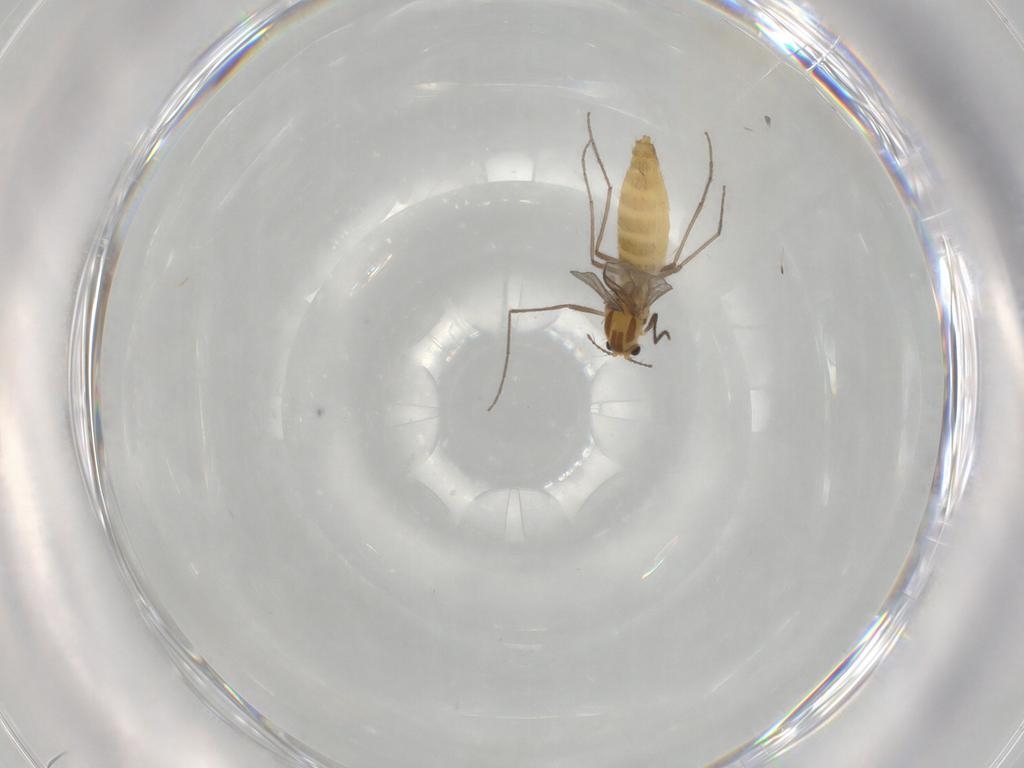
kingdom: Animalia
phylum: Arthropoda
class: Insecta
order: Diptera
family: Chironomidae
